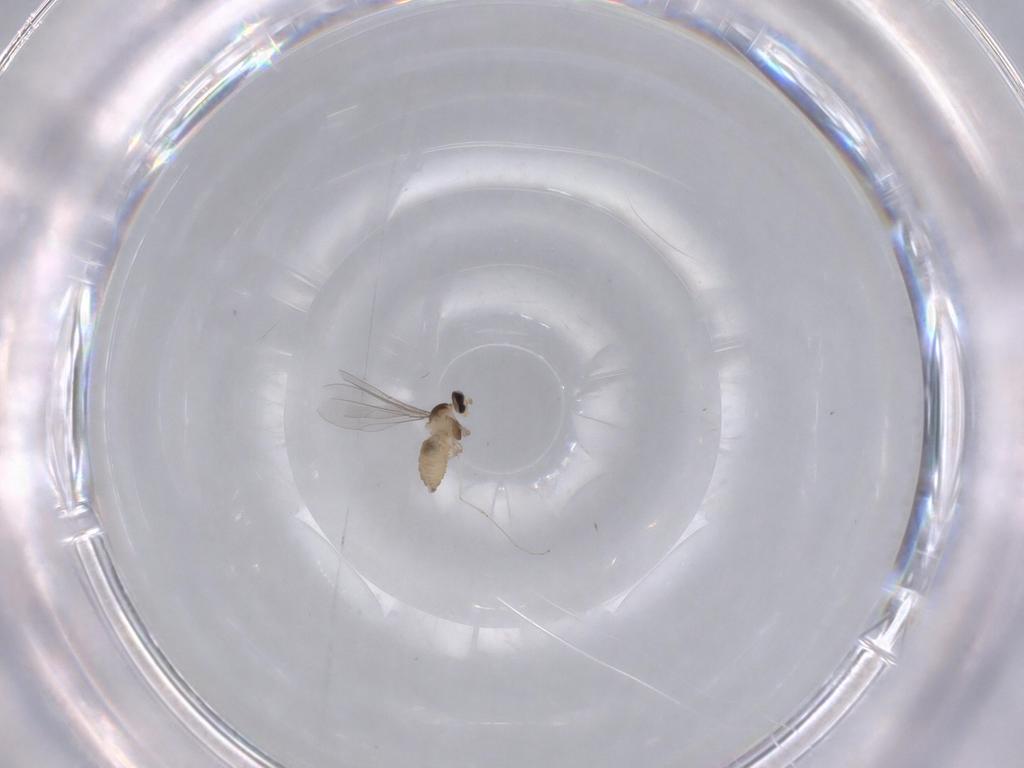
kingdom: Animalia
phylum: Arthropoda
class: Insecta
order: Diptera
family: Cecidomyiidae
